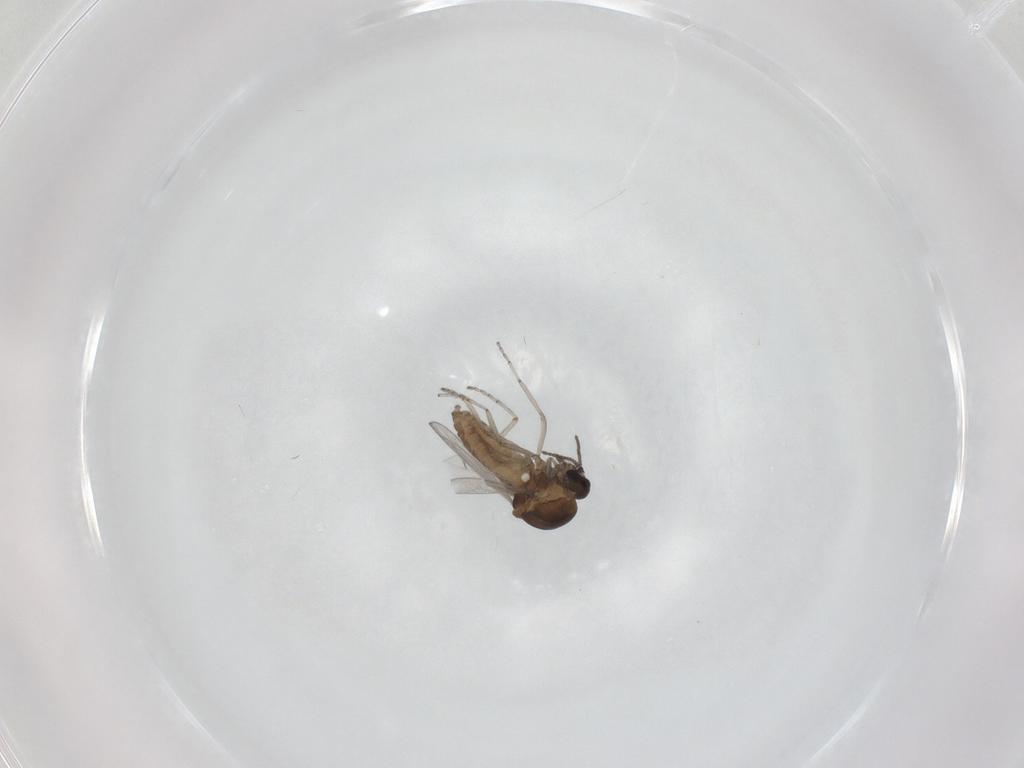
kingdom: Animalia
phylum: Arthropoda
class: Insecta
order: Diptera
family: Ceratopogonidae
